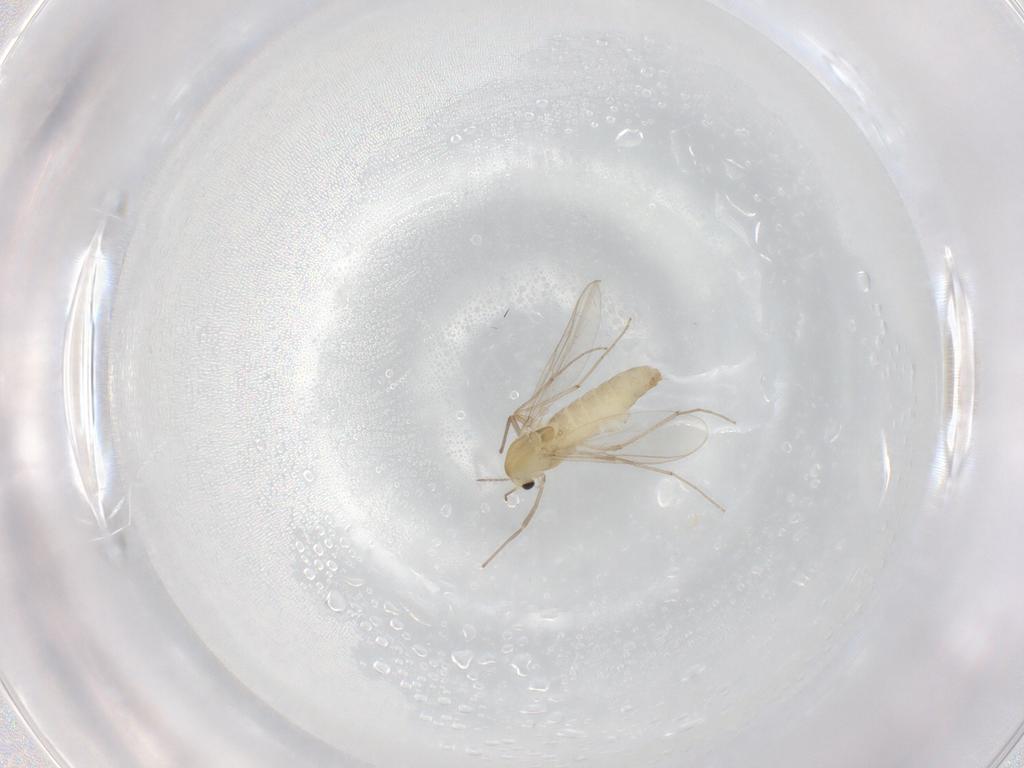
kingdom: Animalia
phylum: Arthropoda
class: Insecta
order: Diptera
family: Chironomidae
